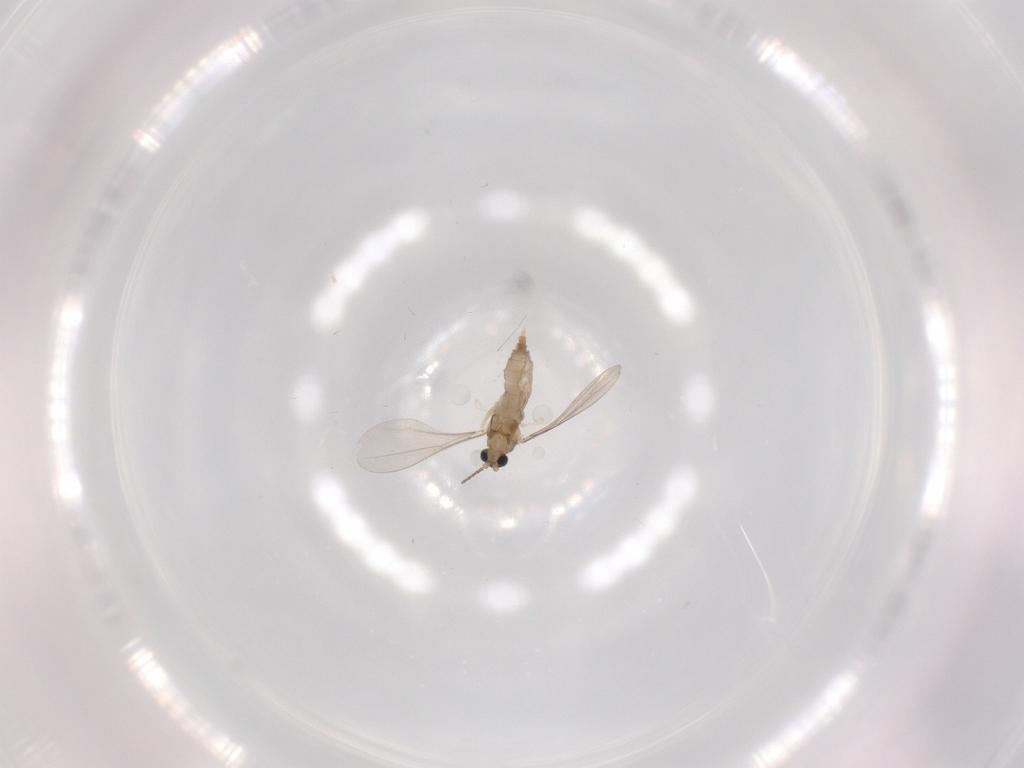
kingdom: Animalia
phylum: Arthropoda
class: Insecta
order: Diptera
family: Cecidomyiidae
